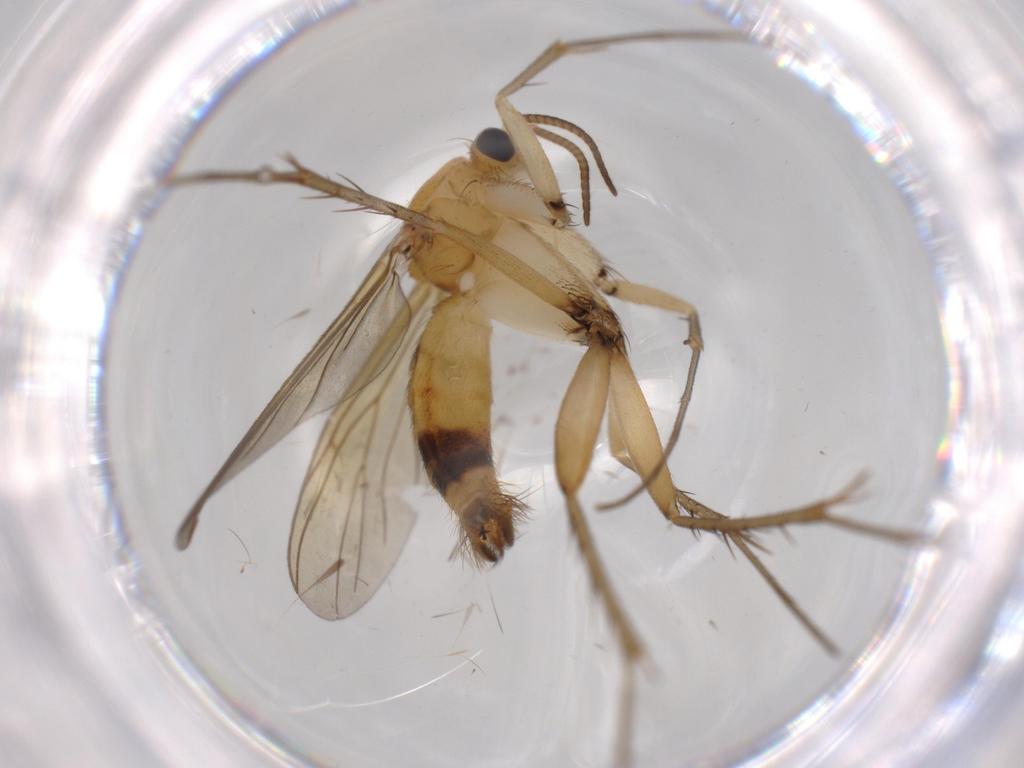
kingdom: Animalia
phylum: Arthropoda
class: Insecta
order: Diptera
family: Mycetophilidae
